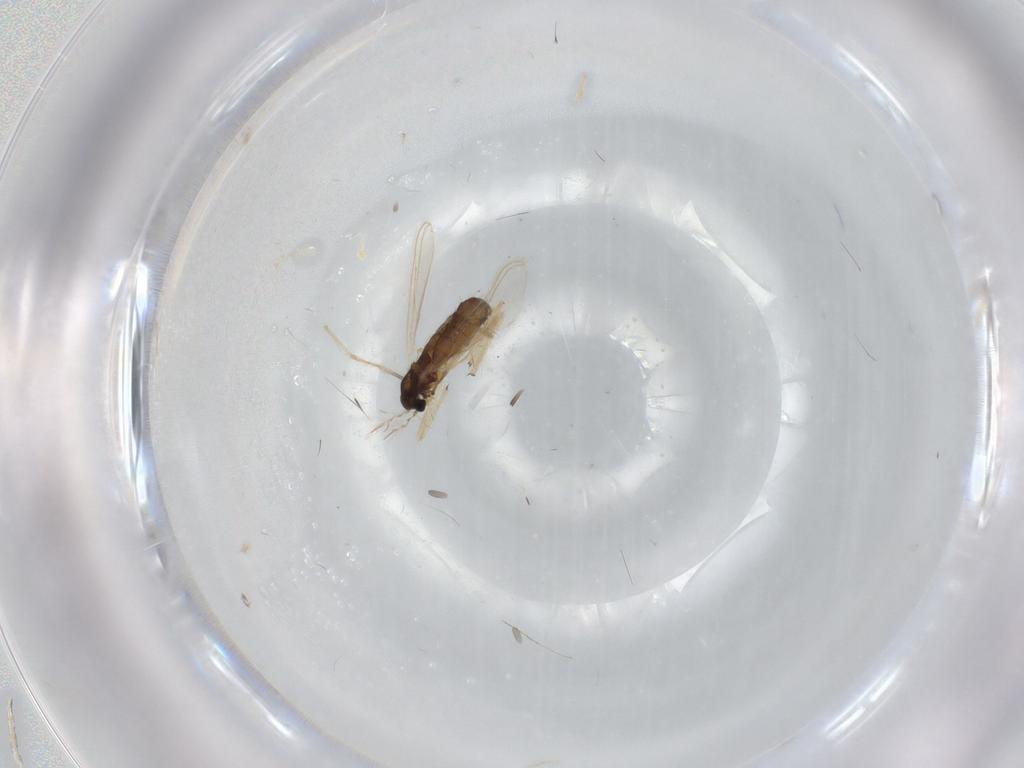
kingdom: Animalia
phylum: Arthropoda
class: Insecta
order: Diptera
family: Chironomidae
